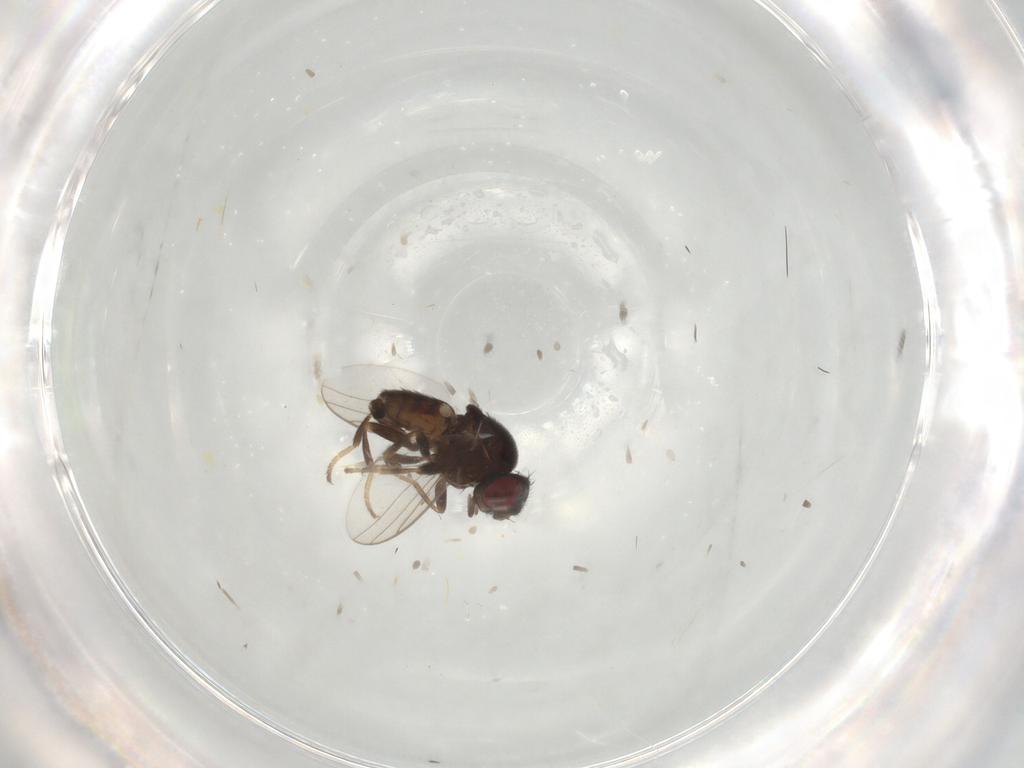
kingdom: Animalia
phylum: Arthropoda
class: Insecta
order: Diptera
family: Chloropidae
